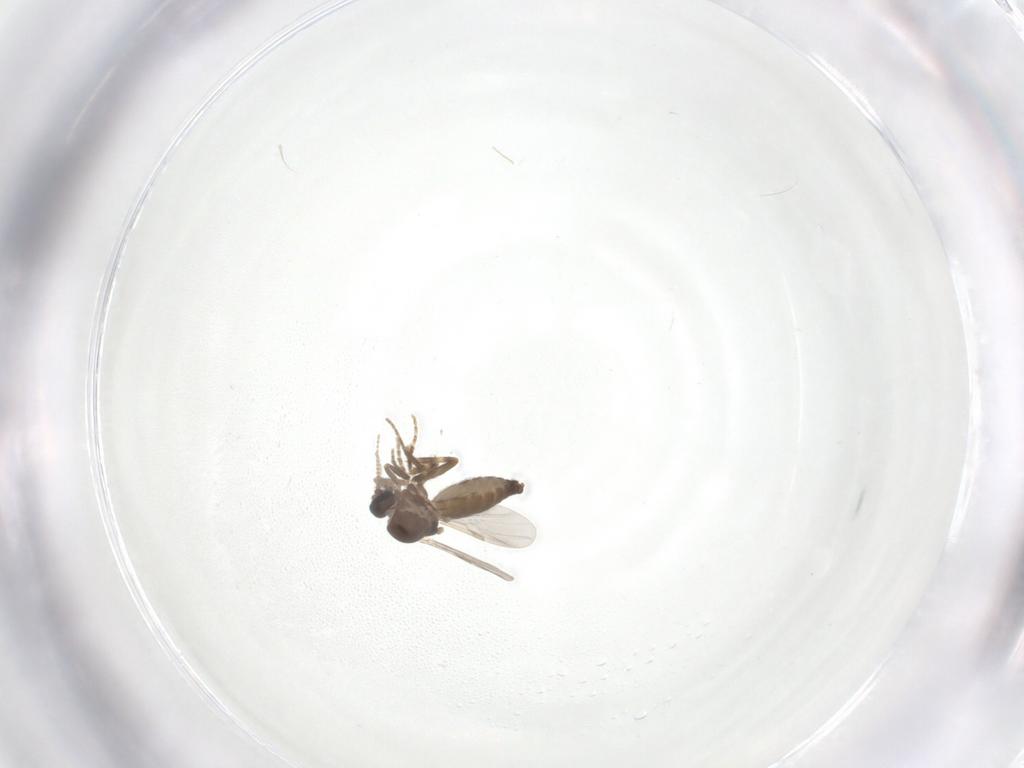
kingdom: Animalia
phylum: Arthropoda
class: Insecta
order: Diptera
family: Ceratopogonidae
